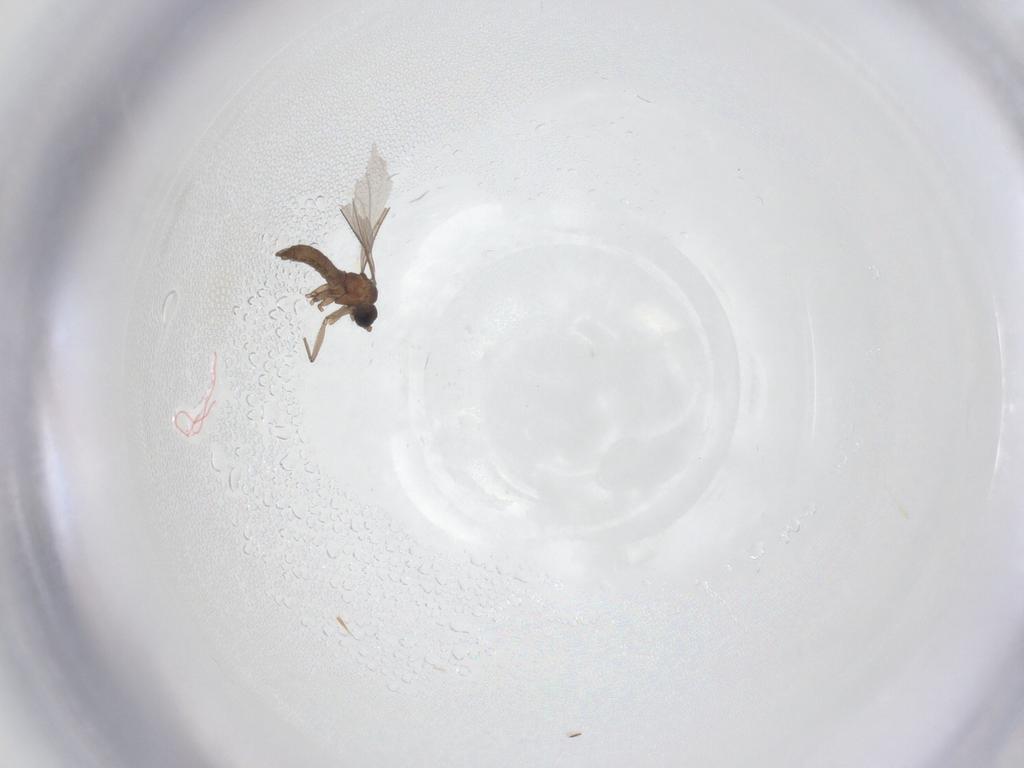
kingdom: Animalia
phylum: Arthropoda
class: Insecta
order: Diptera
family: Sciaridae
